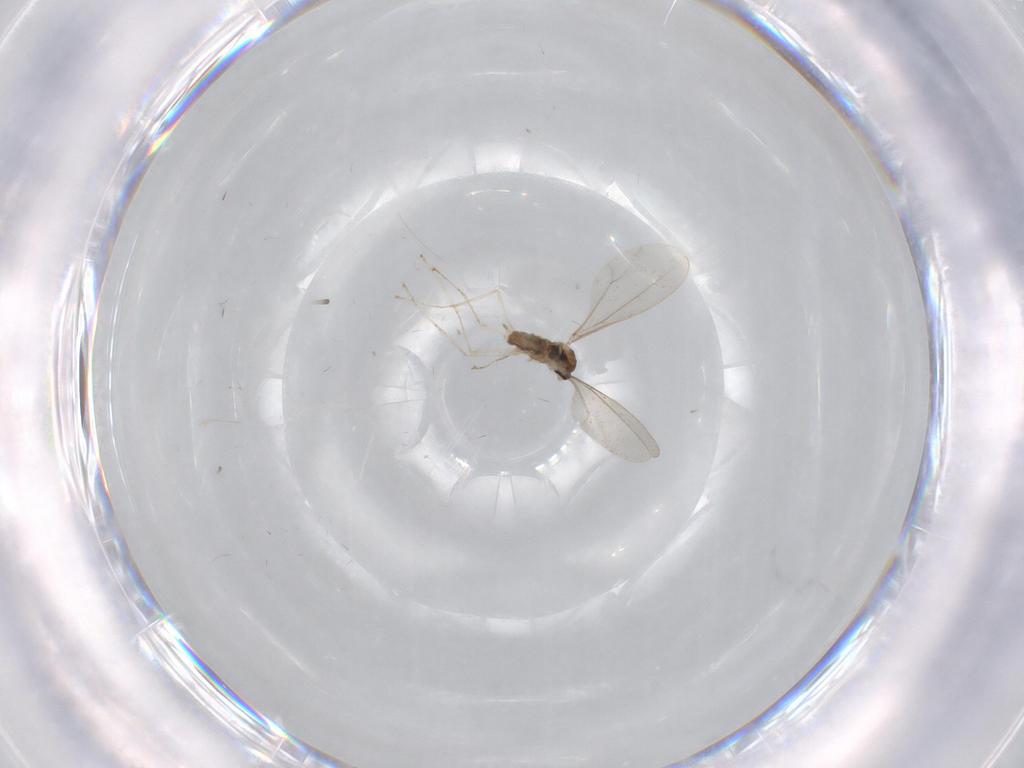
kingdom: Animalia
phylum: Arthropoda
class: Insecta
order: Diptera
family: Cecidomyiidae
